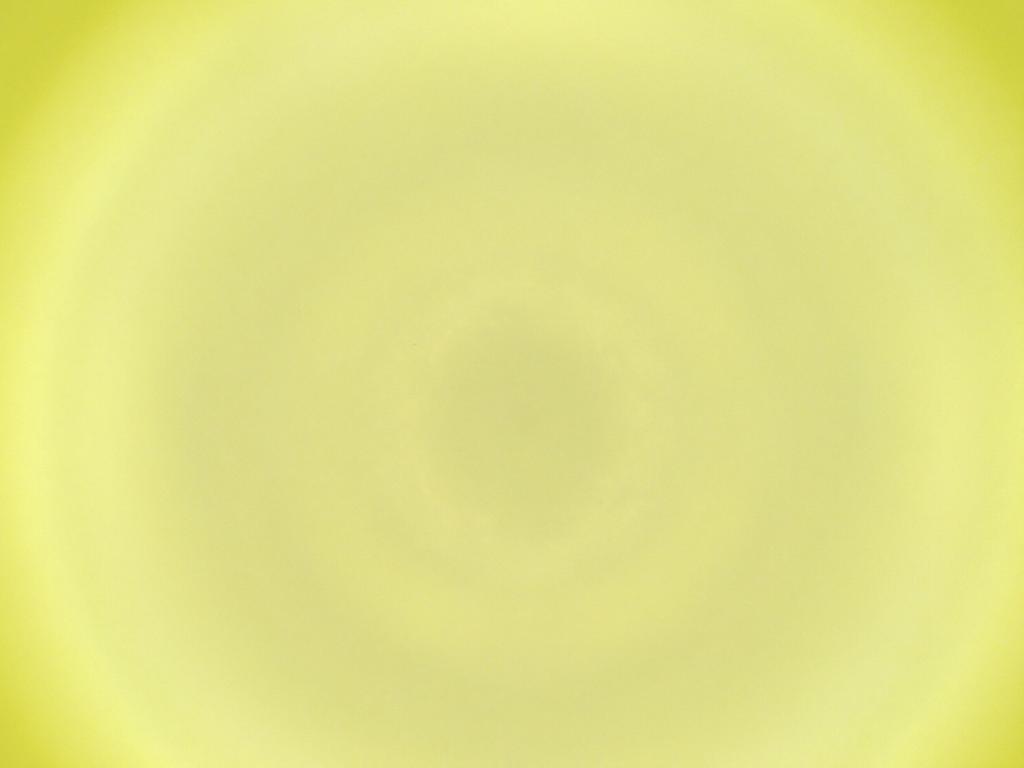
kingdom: Animalia
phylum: Arthropoda
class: Insecta
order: Diptera
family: Cecidomyiidae
